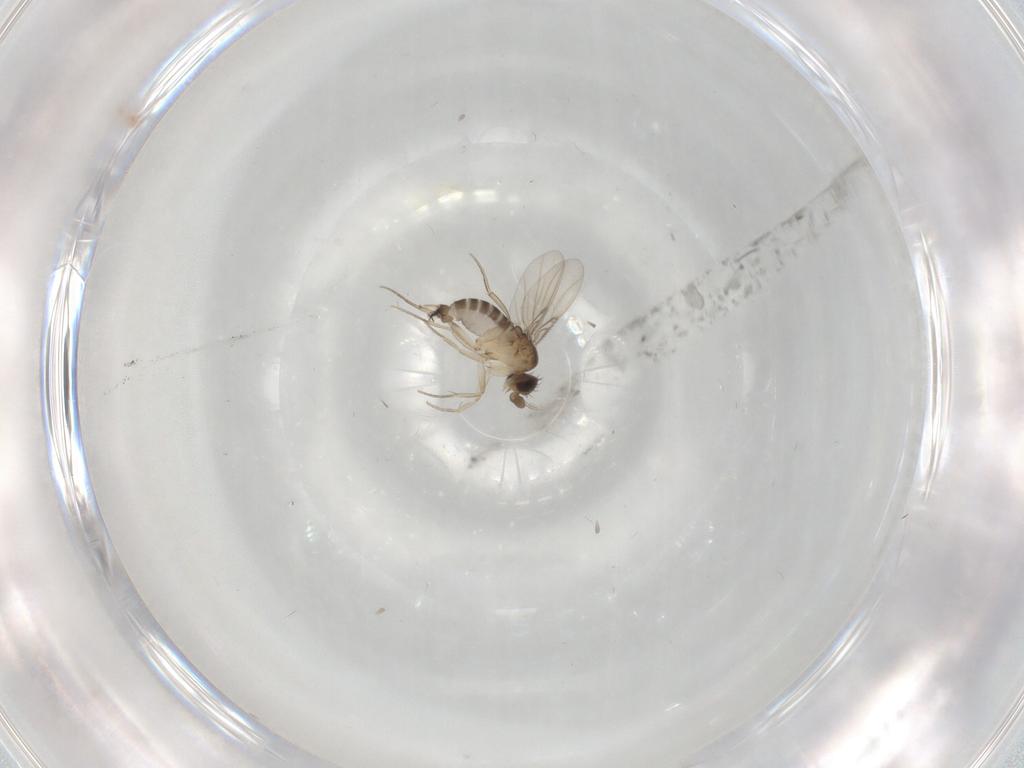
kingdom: Animalia
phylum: Arthropoda
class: Insecta
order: Diptera
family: Phoridae
